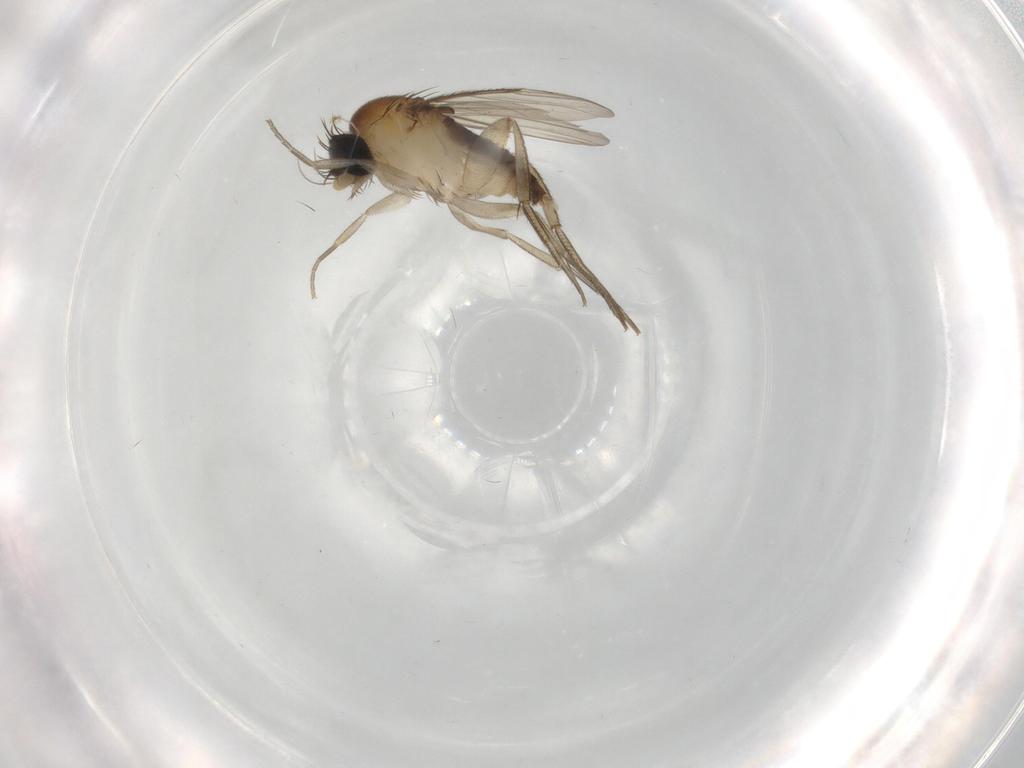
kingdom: Animalia
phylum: Arthropoda
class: Insecta
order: Diptera
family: Phoridae
